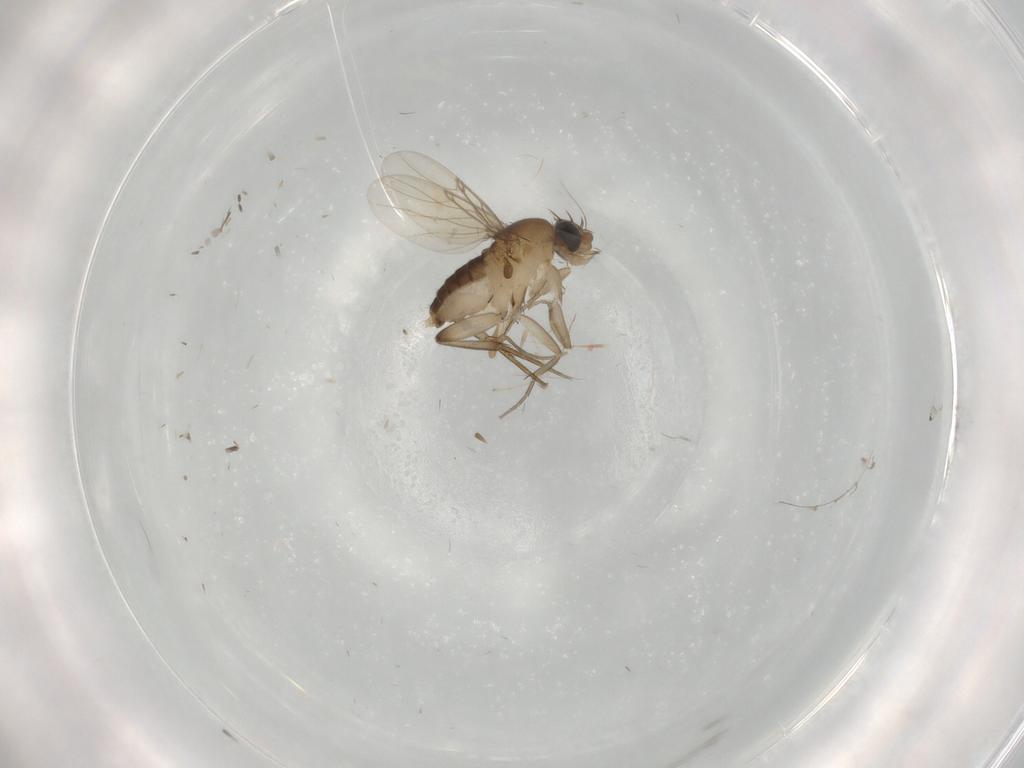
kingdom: Animalia
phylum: Arthropoda
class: Insecta
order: Diptera
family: Phoridae
